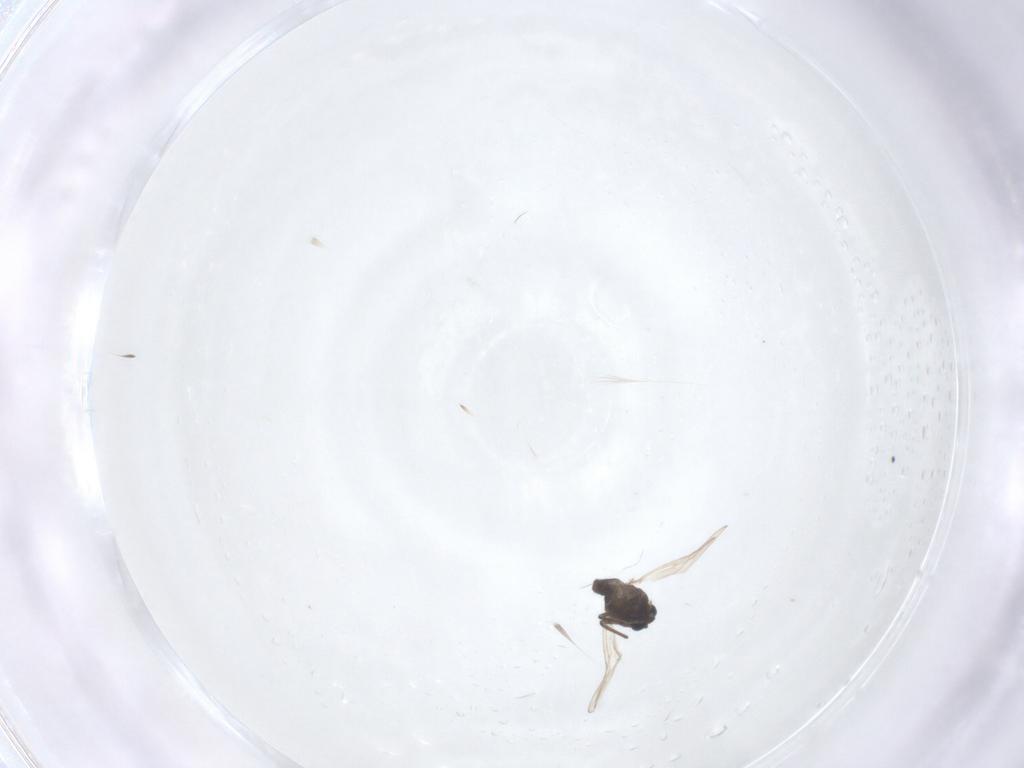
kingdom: Animalia
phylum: Arthropoda
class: Insecta
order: Diptera
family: Chironomidae
